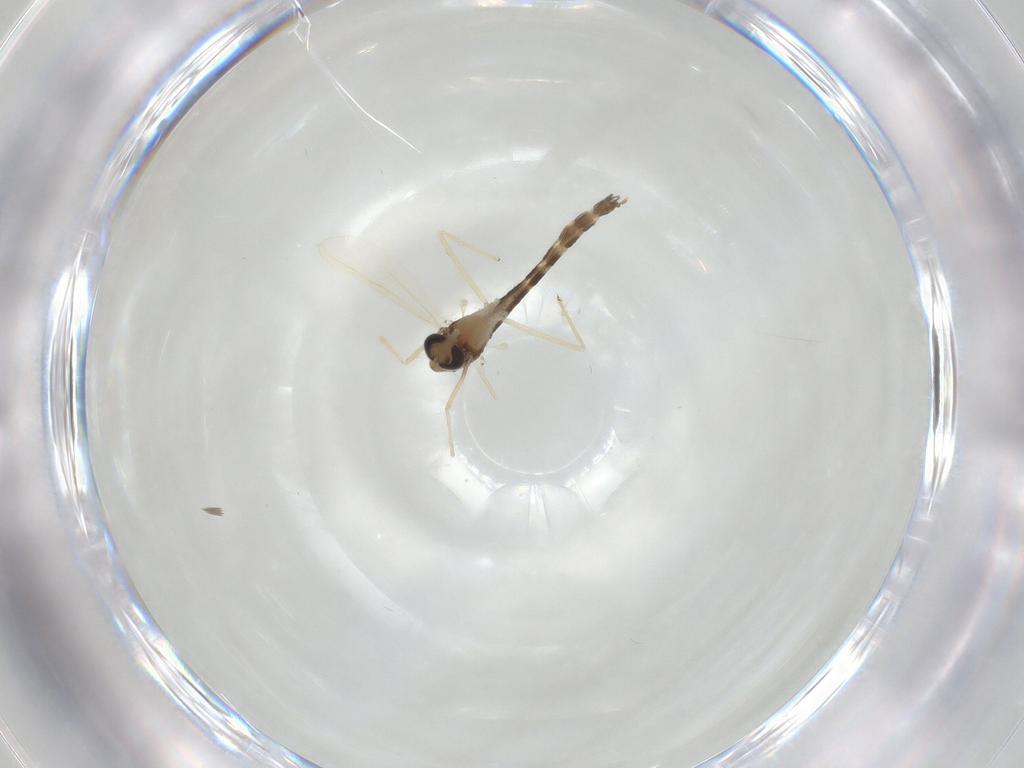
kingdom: Animalia
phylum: Arthropoda
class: Insecta
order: Diptera
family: Chironomidae
